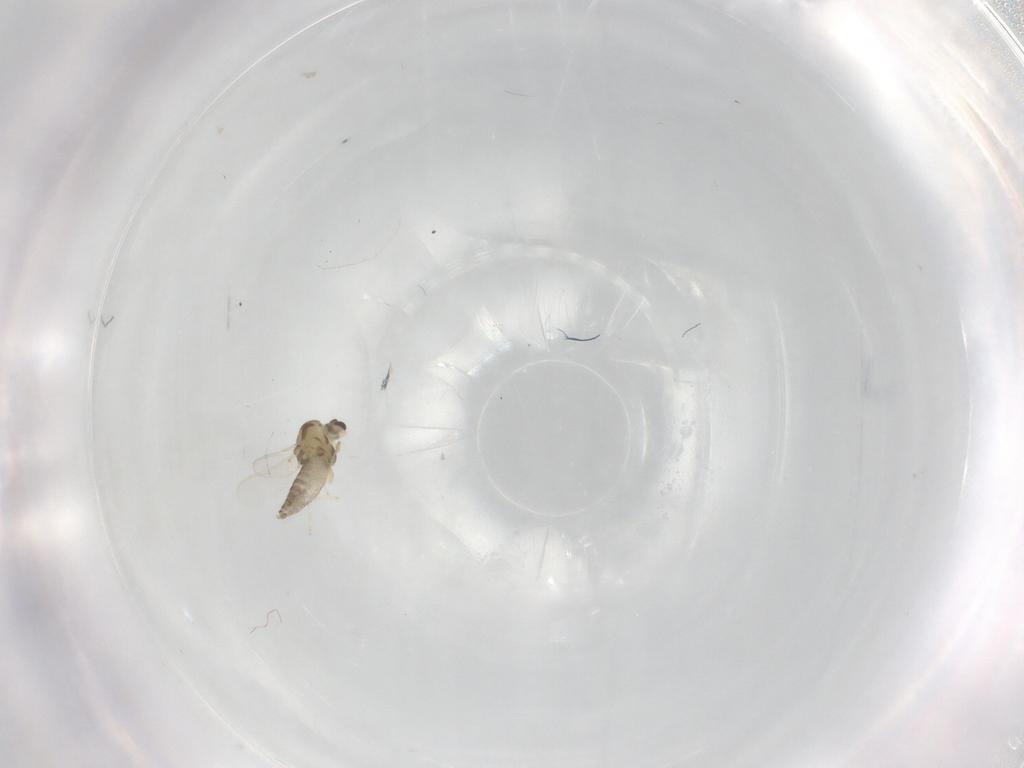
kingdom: Animalia
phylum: Arthropoda
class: Insecta
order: Diptera
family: Chironomidae
